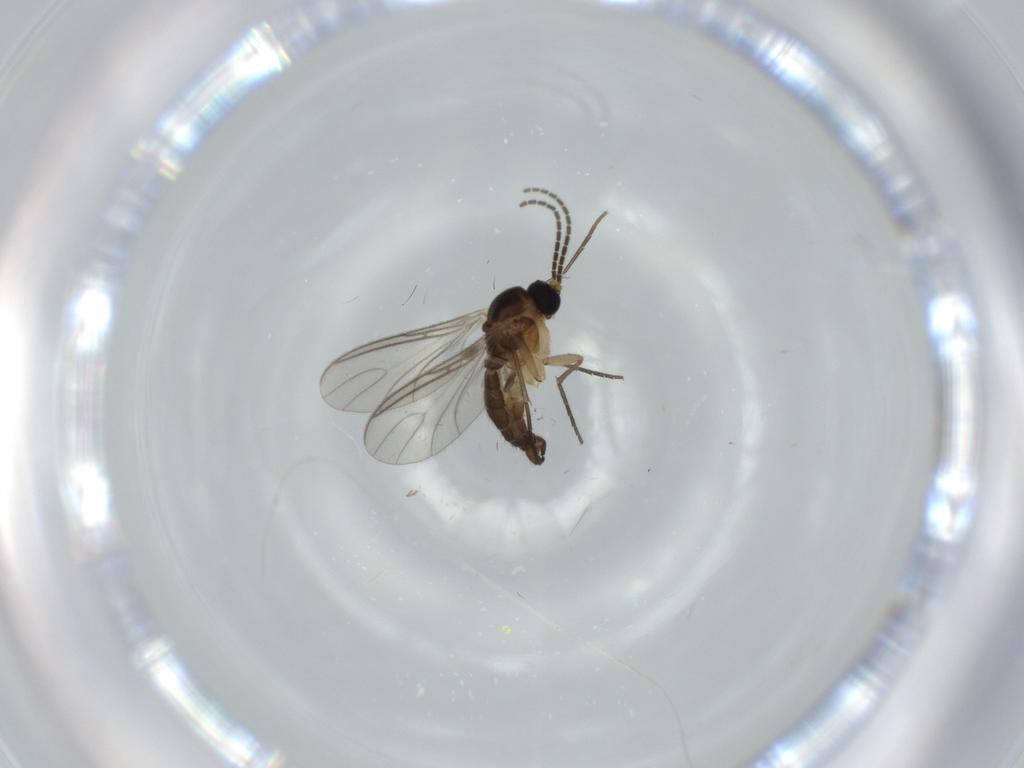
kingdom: Animalia
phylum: Arthropoda
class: Insecta
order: Diptera
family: Sciaridae
